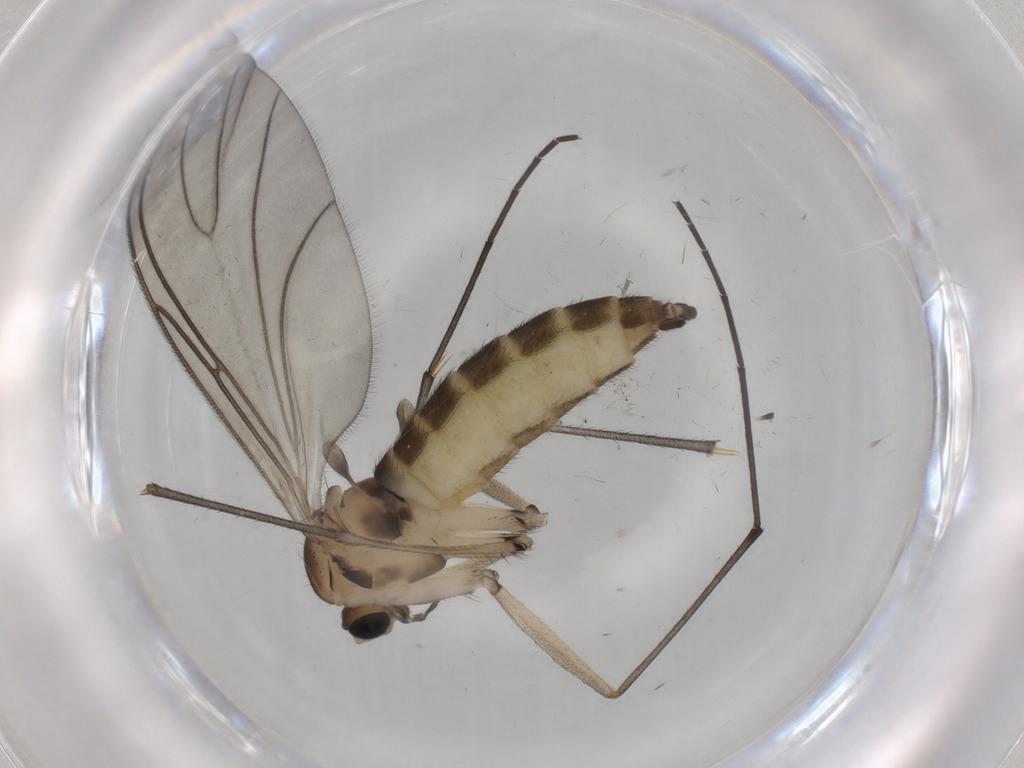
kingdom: Animalia
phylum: Arthropoda
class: Insecta
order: Diptera
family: Sciaridae
